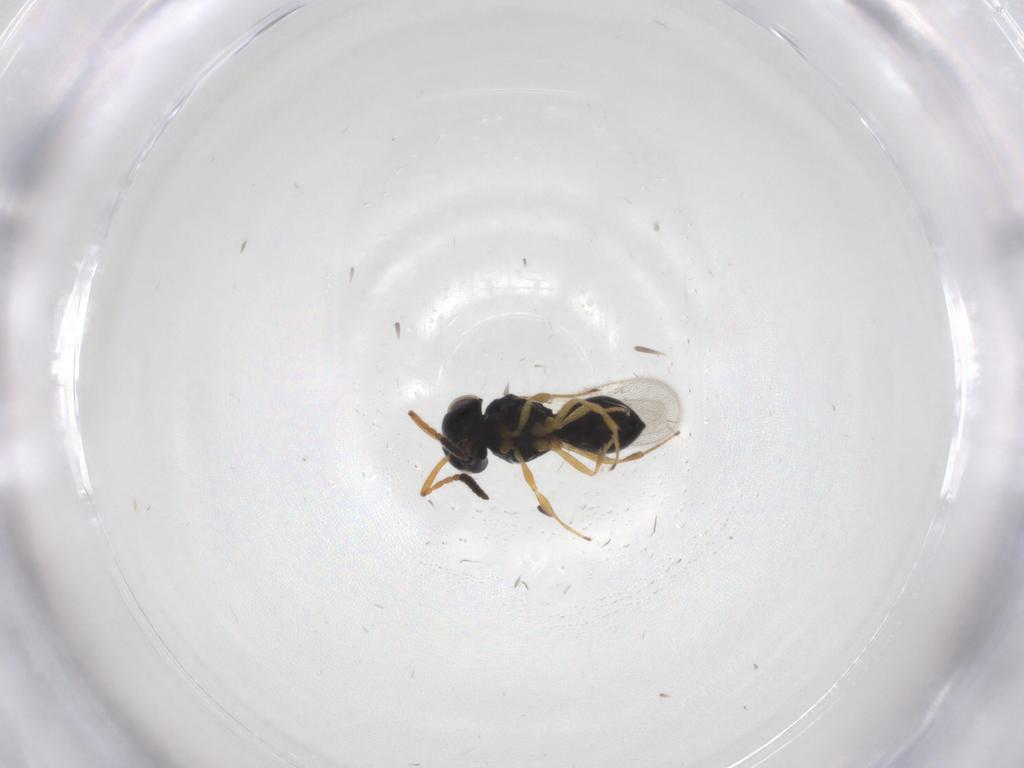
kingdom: Animalia
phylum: Arthropoda
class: Insecta
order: Hymenoptera
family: Scelionidae
